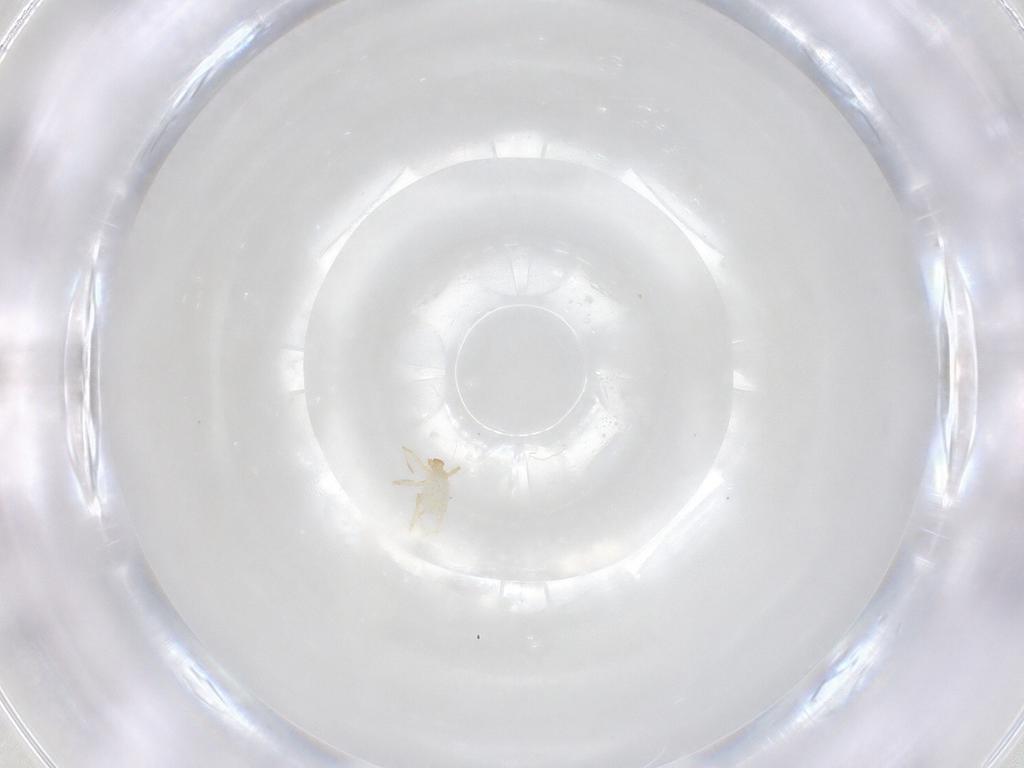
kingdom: Animalia
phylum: Arthropoda
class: Arachnida
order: Trombidiformes
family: Erythraeidae
